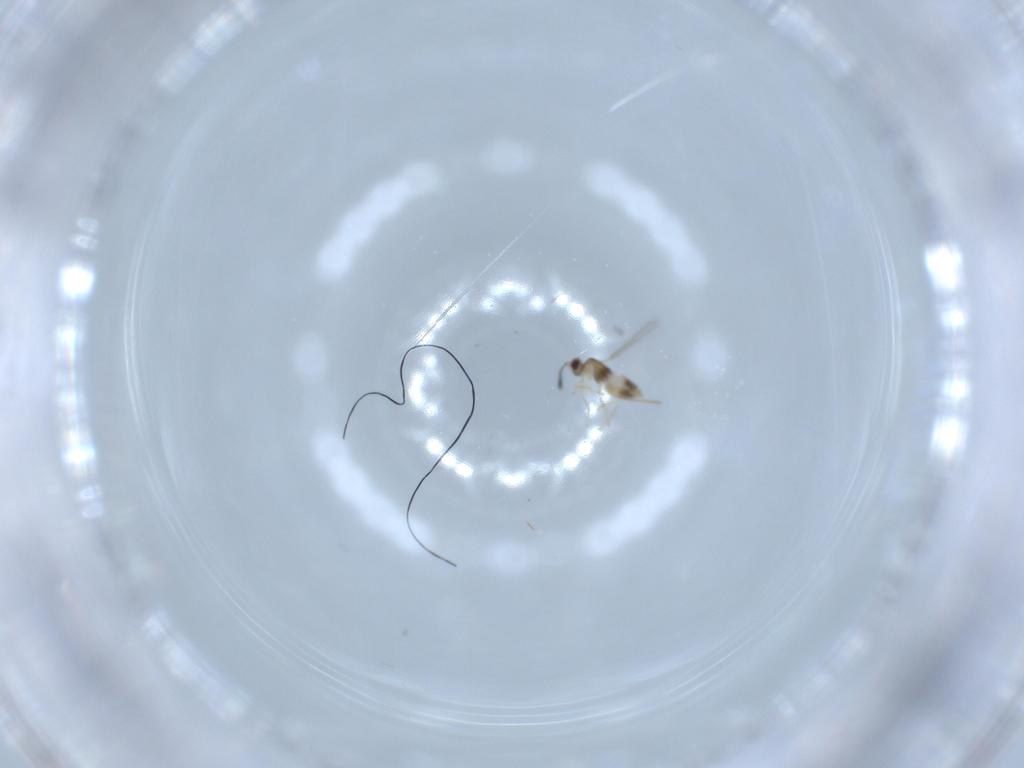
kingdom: Animalia
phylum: Arthropoda
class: Insecta
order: Hymenoptera
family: Mymaridae
